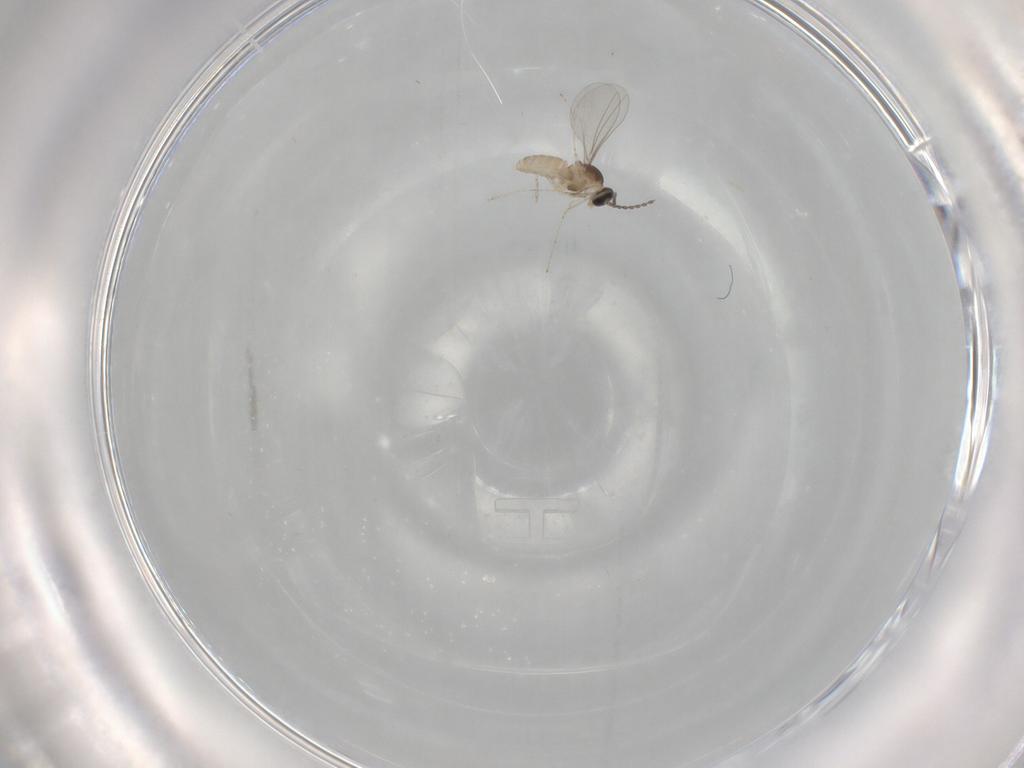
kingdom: Animalia
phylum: Arthropoda
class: Insecta
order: Diptera
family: Cecidomyiidae
